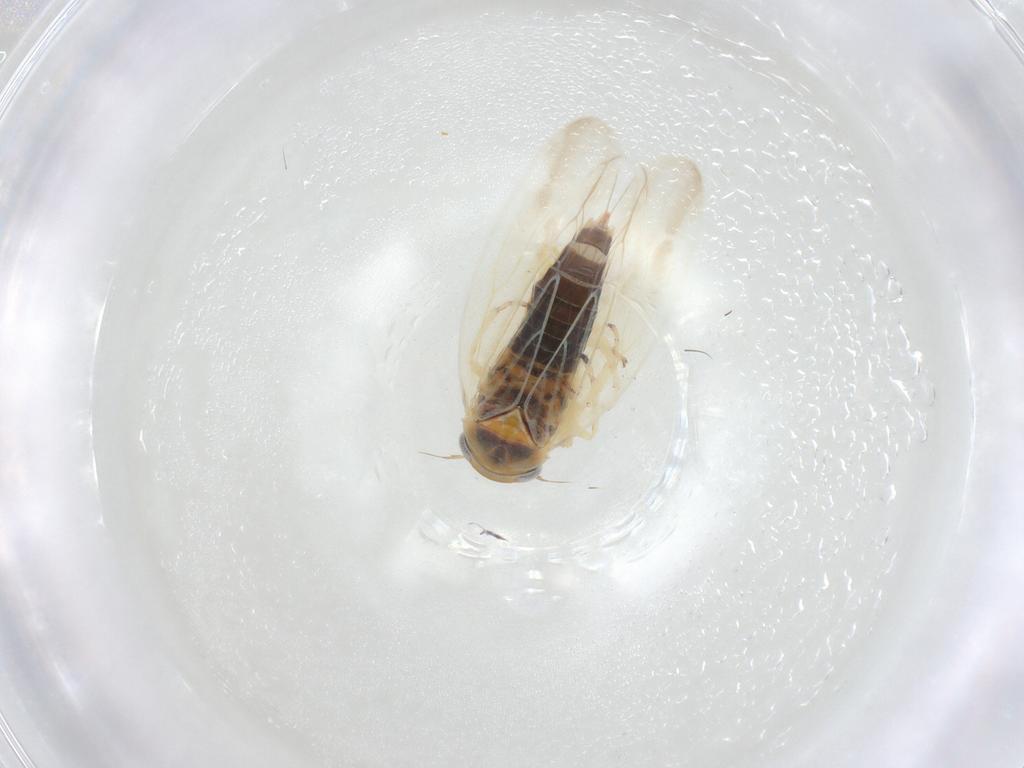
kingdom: Animalia
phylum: Arthropoda
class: Insecta
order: Hemiptera
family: Cicadellidae
